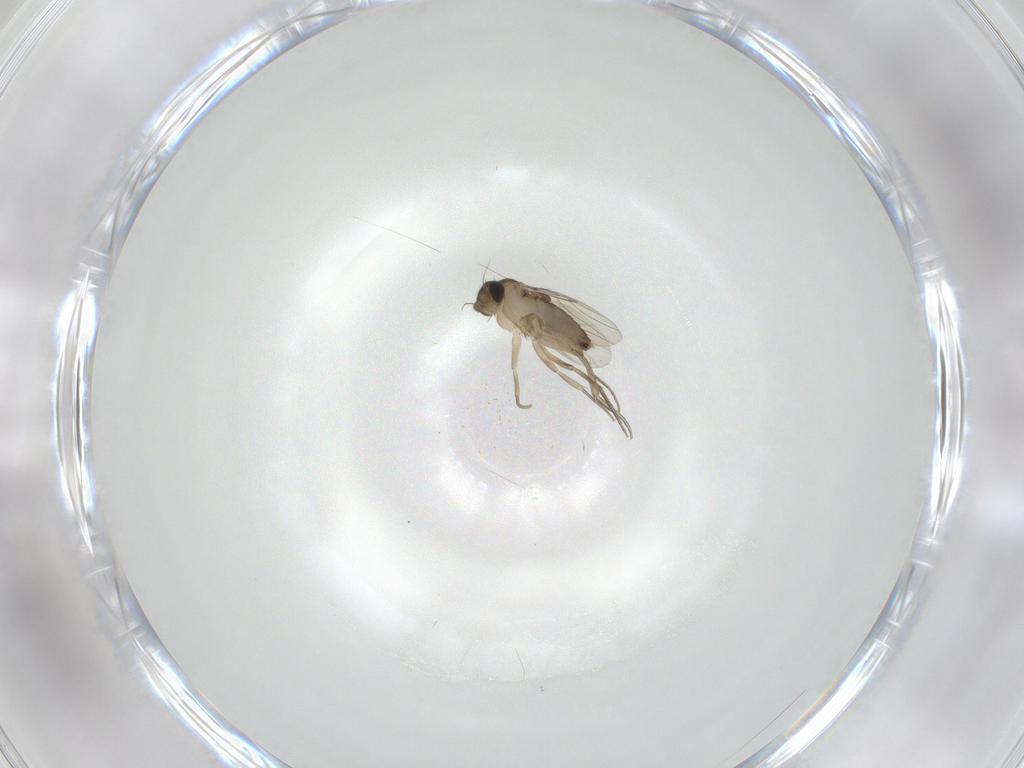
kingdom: Animalia
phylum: Arthropoda
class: Insecta
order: Diptera
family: Phoridae
